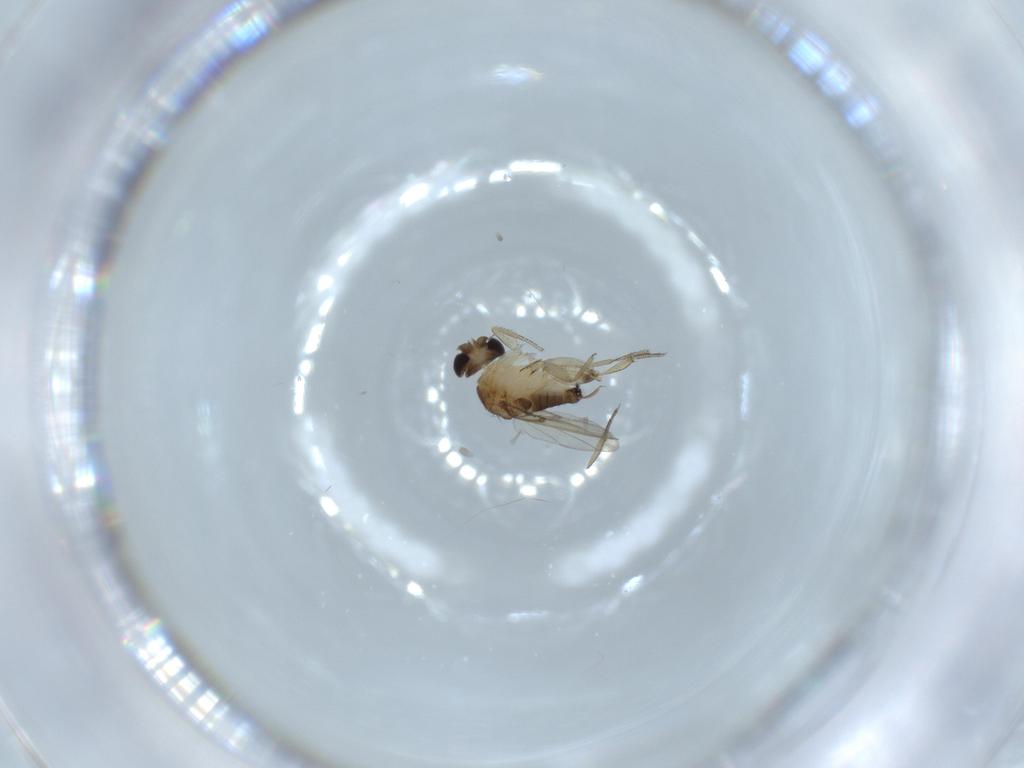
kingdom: Animalia
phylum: Arthropoda
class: Insecta
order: Diptera
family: Phoridae
